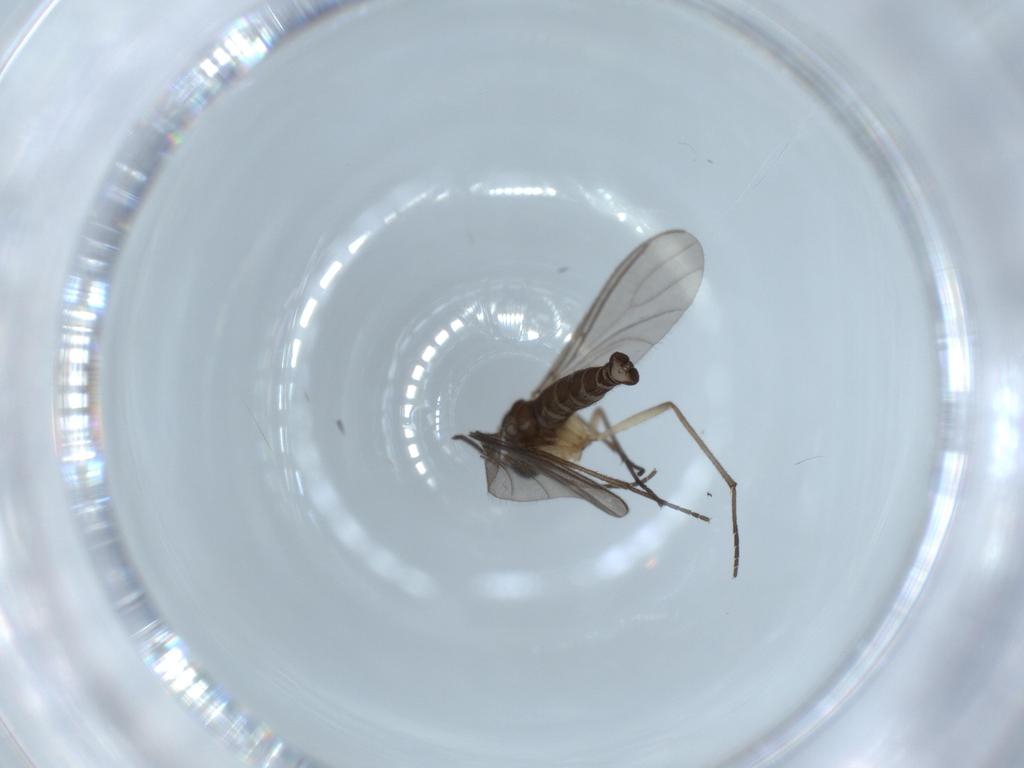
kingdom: Animalia
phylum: Arthropoda
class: Insecta
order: Diptera
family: Sciaridae
